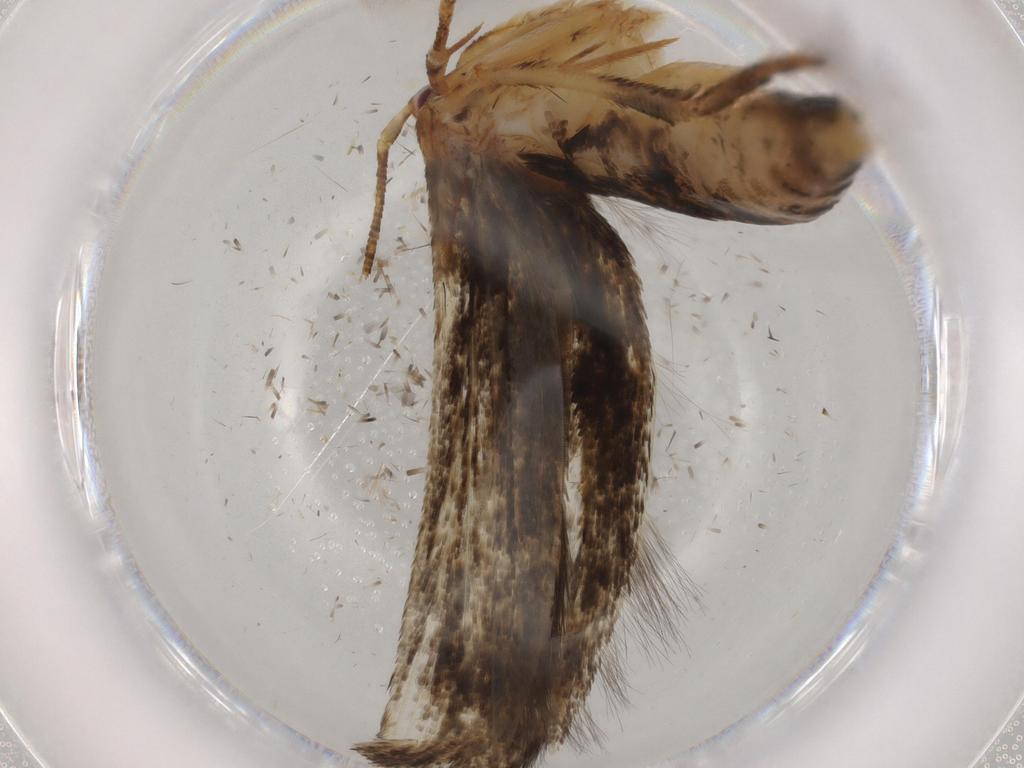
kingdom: Animalia
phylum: Arthropoda
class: Insecta
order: Lepidoptera
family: Momphidae
